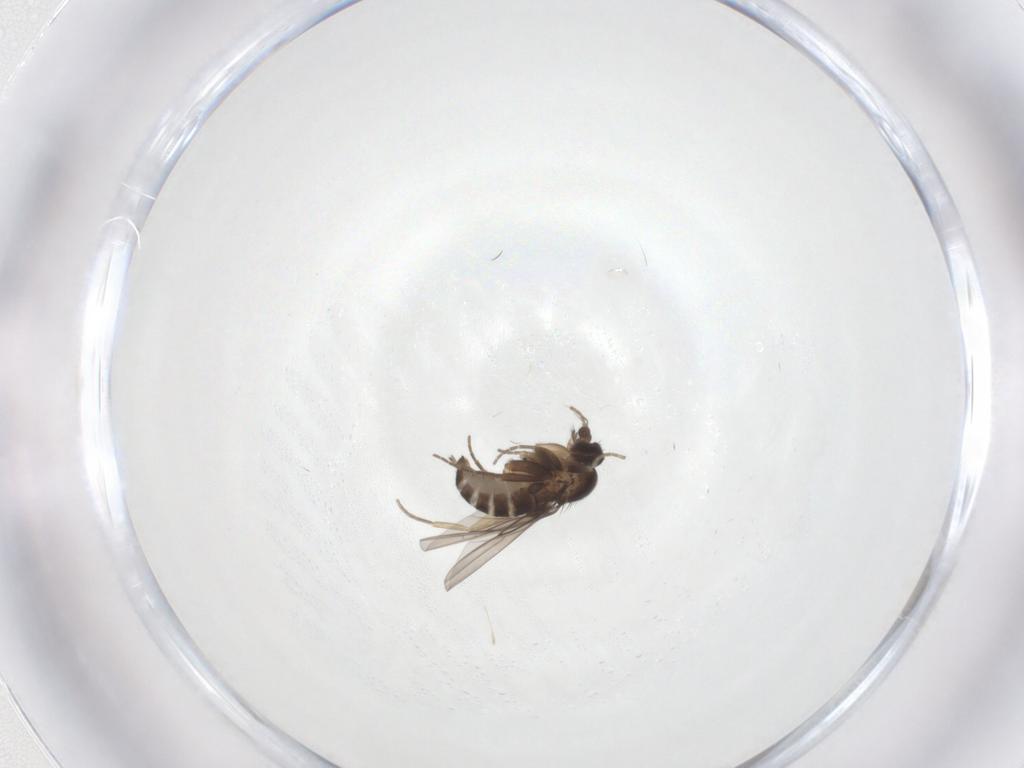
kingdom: Animalia
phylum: Arthropoda
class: Insecta
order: Diptera
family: Phoridae
